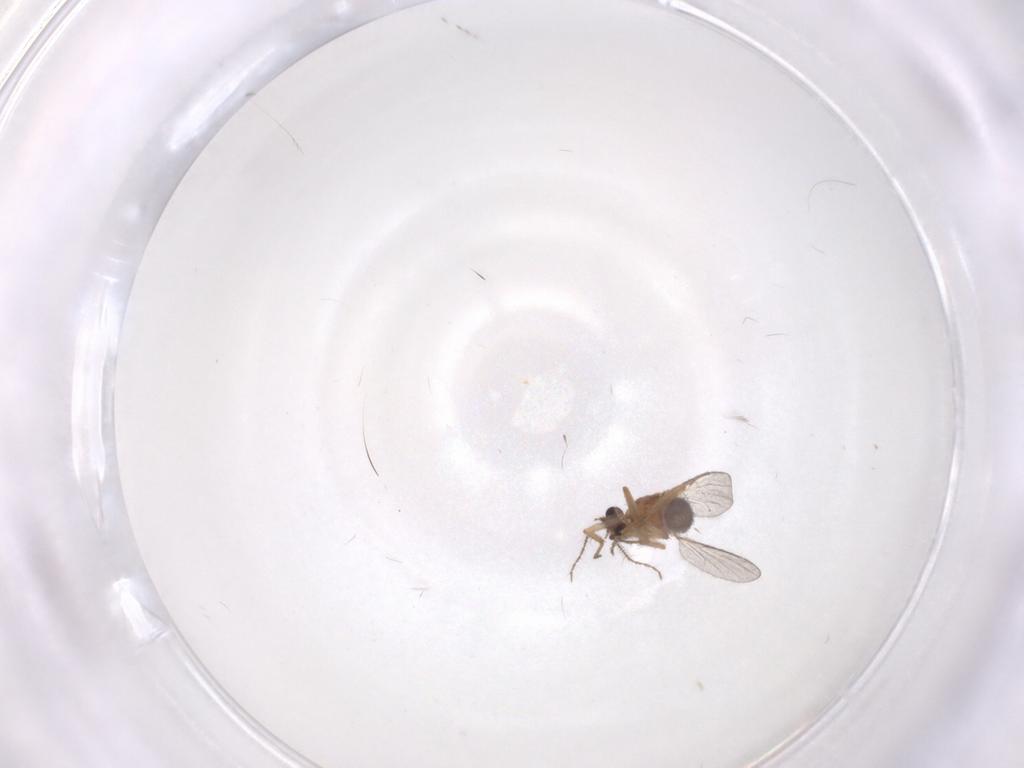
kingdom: Animalia
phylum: Arthropoda
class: Insecta
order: Diptera
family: Ceratopogonidae
